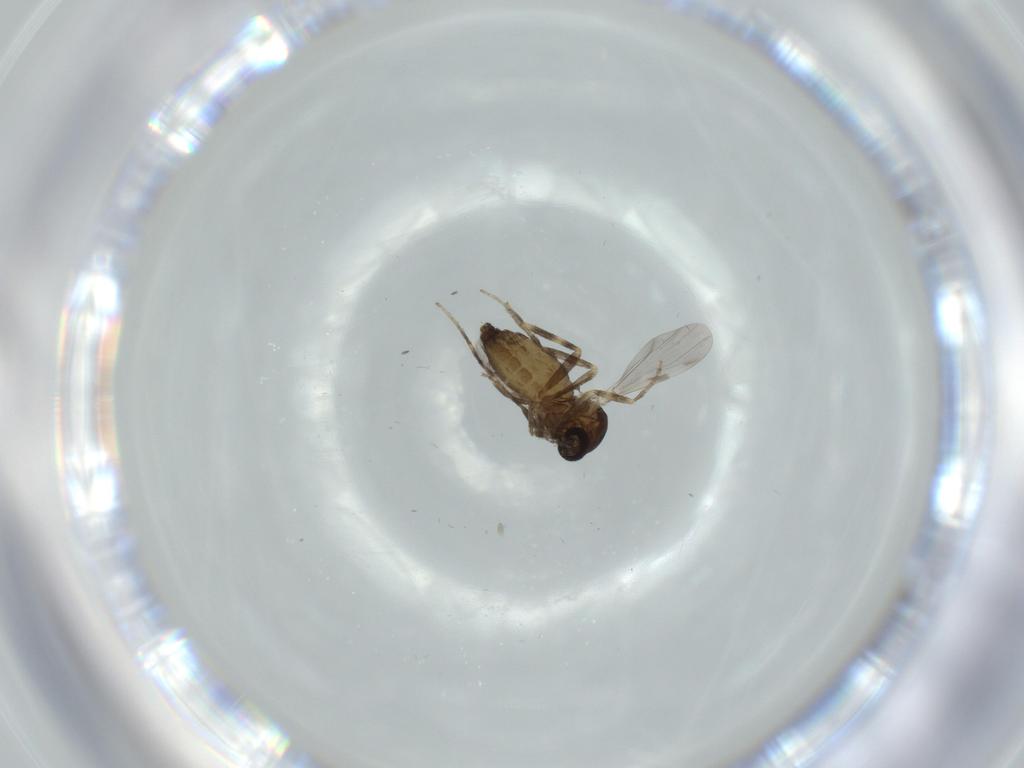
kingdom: Animalia
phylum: Arthropoda
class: Insecta
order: Diptera
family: Ceratopogonidae
